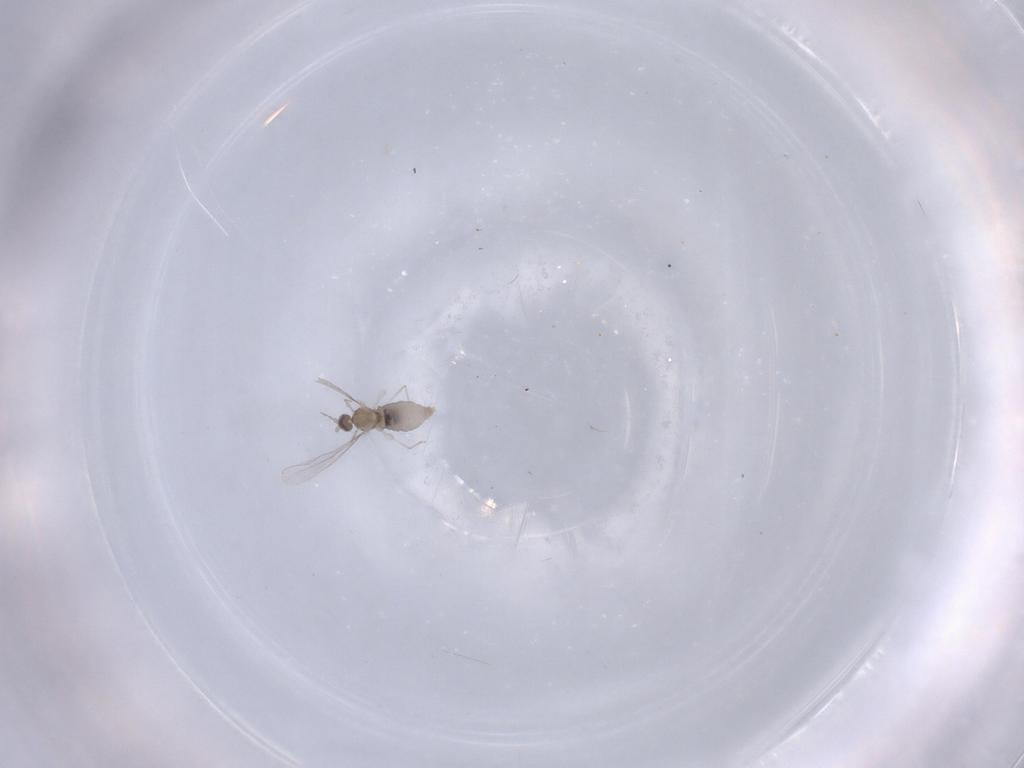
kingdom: Animalia
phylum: Arthropoda
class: Insecta
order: Diptera
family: Cecidomyiidae
